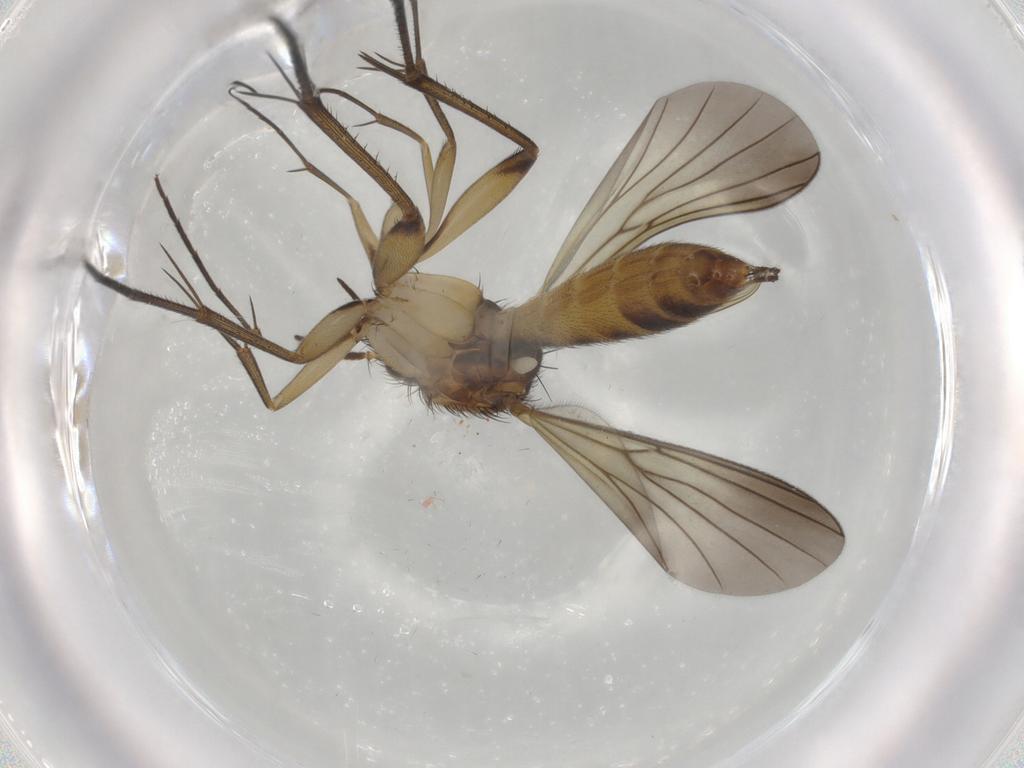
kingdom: Animalia
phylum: Arthropoda
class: Insecta
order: Diptera
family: Mycetophilidae
